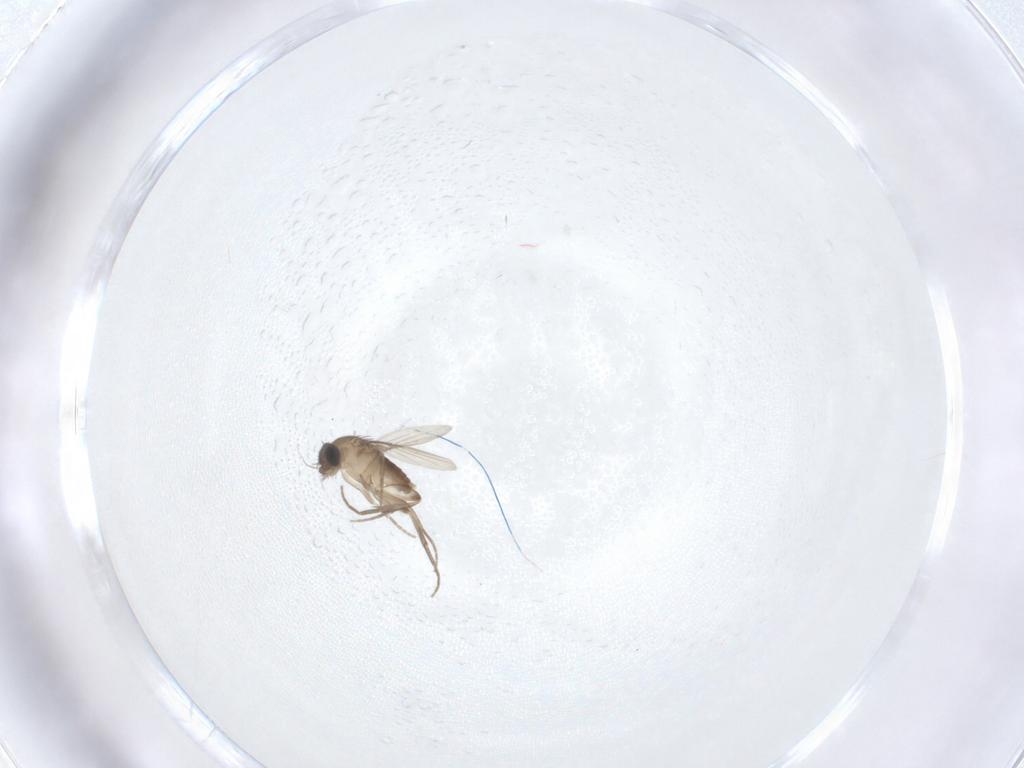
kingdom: Animalia
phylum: Arthropoda
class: Insecta
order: Diptera
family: Phoridae
